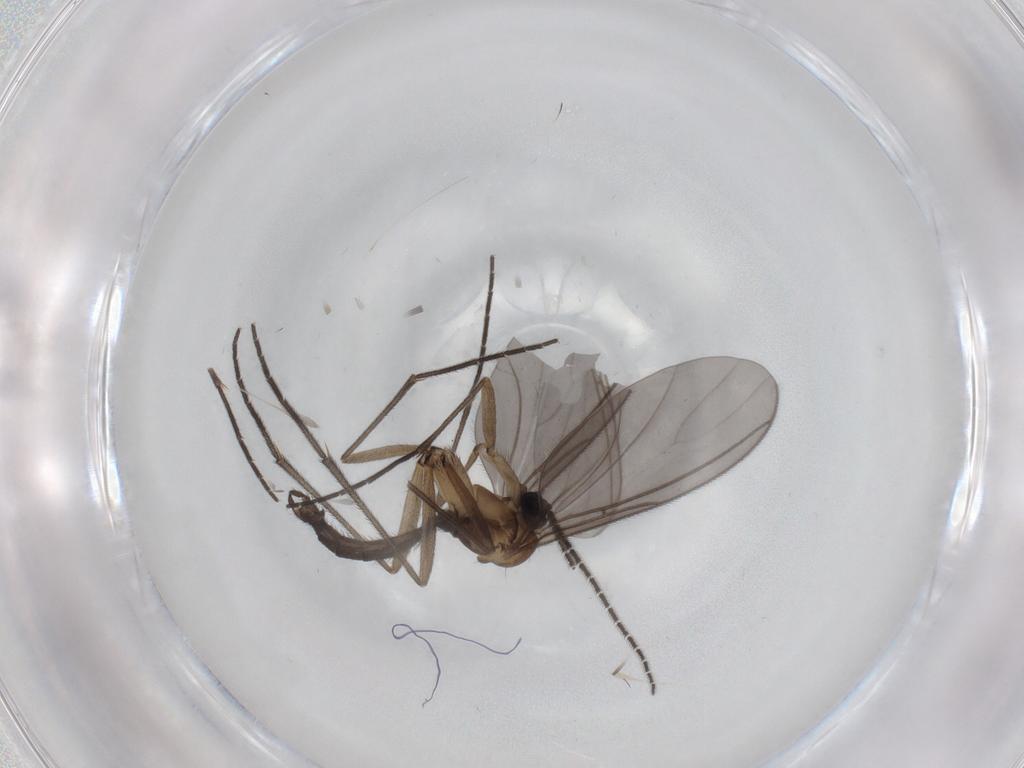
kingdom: Animalia
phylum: Arthropoda
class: Insecta
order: Diptera
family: Sciaridae
